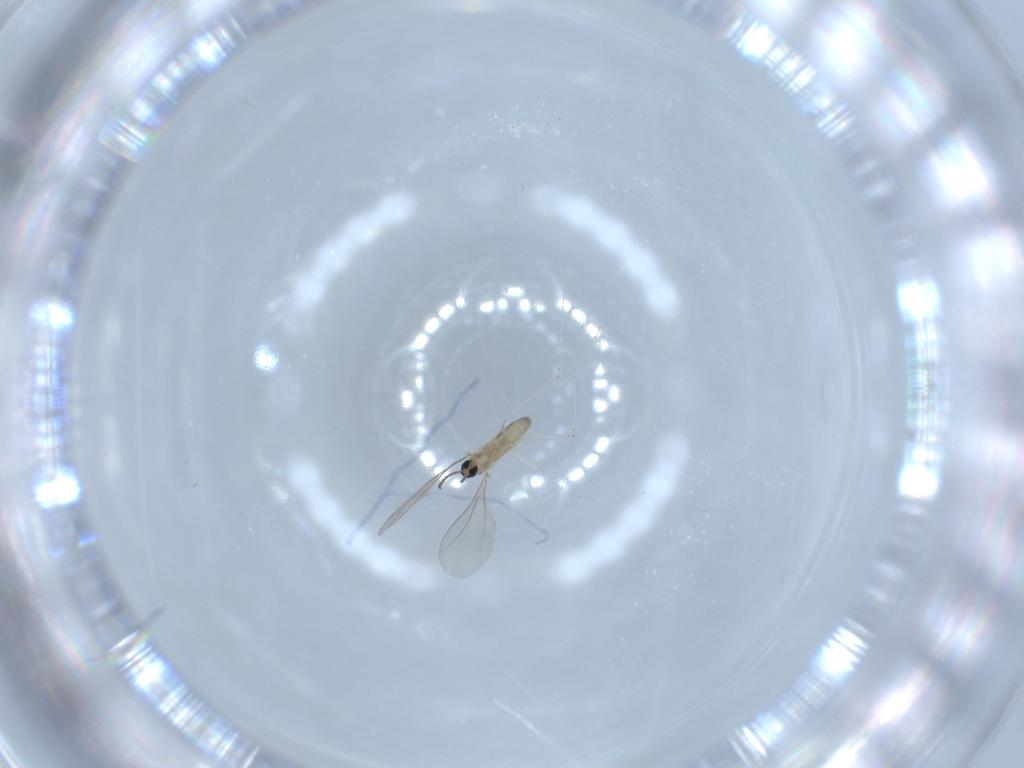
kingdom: Animalia
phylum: Arthropoda
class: Insecta
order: Diptera
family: Cecidomyiidae
